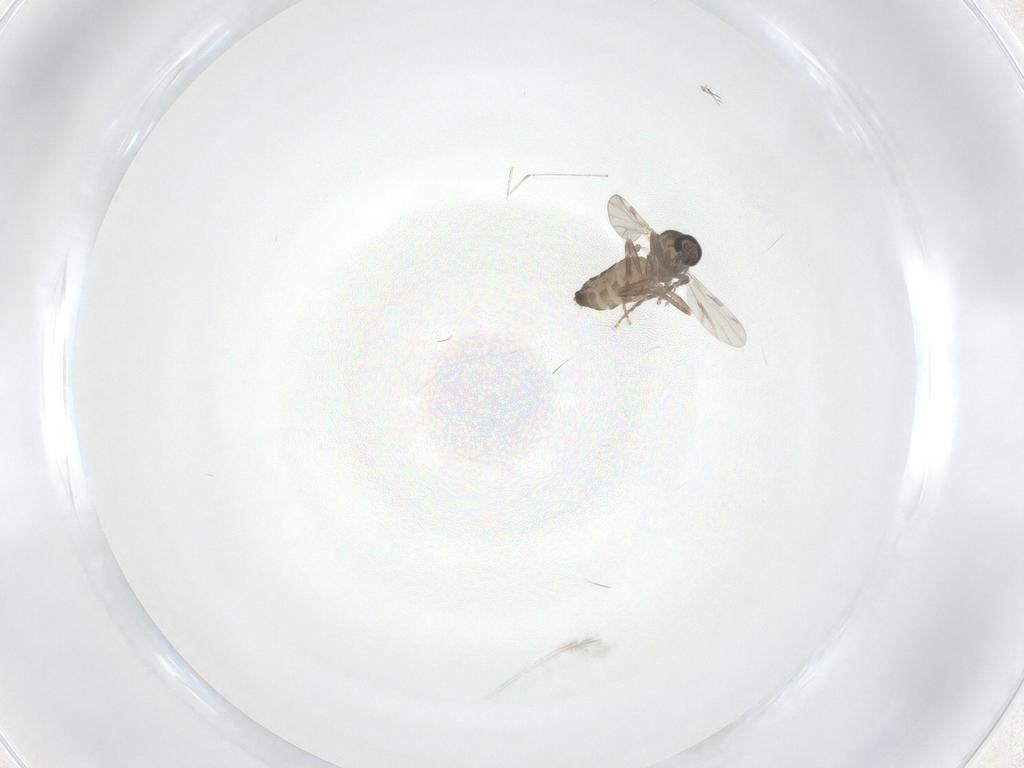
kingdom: Animalia
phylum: Arthropoda
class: Insecta
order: Diptera
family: Ceratopogonidae
